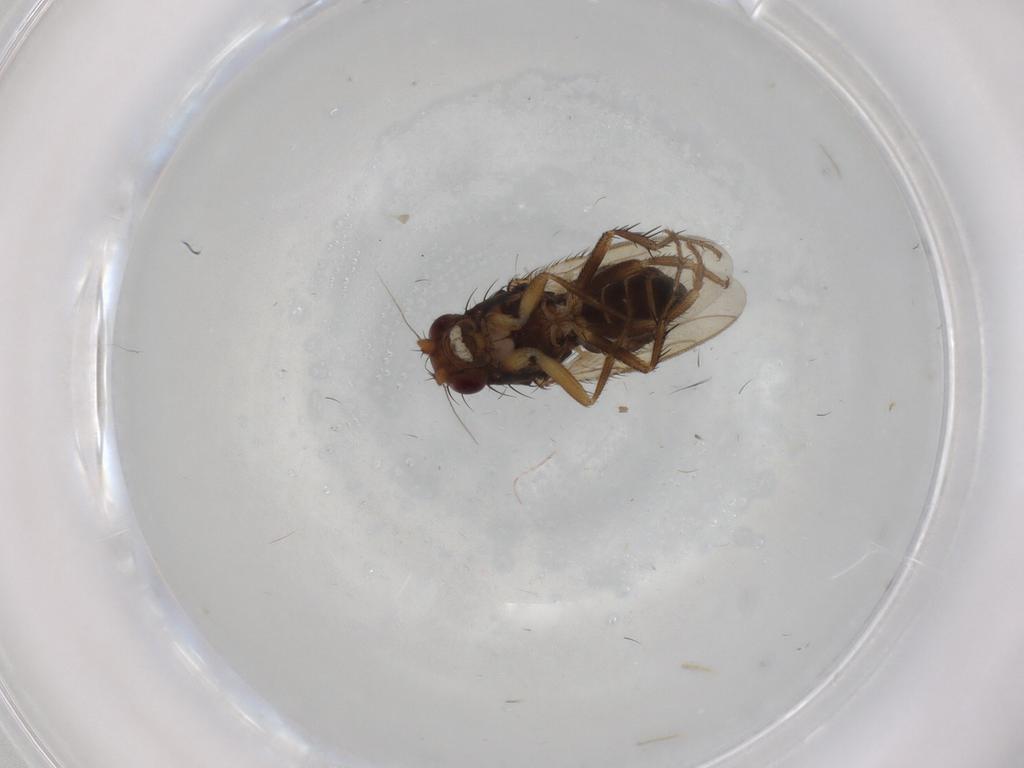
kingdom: Animalia
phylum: Arthropoda
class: Insecta
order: Diptera
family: Sphaeroceridae
